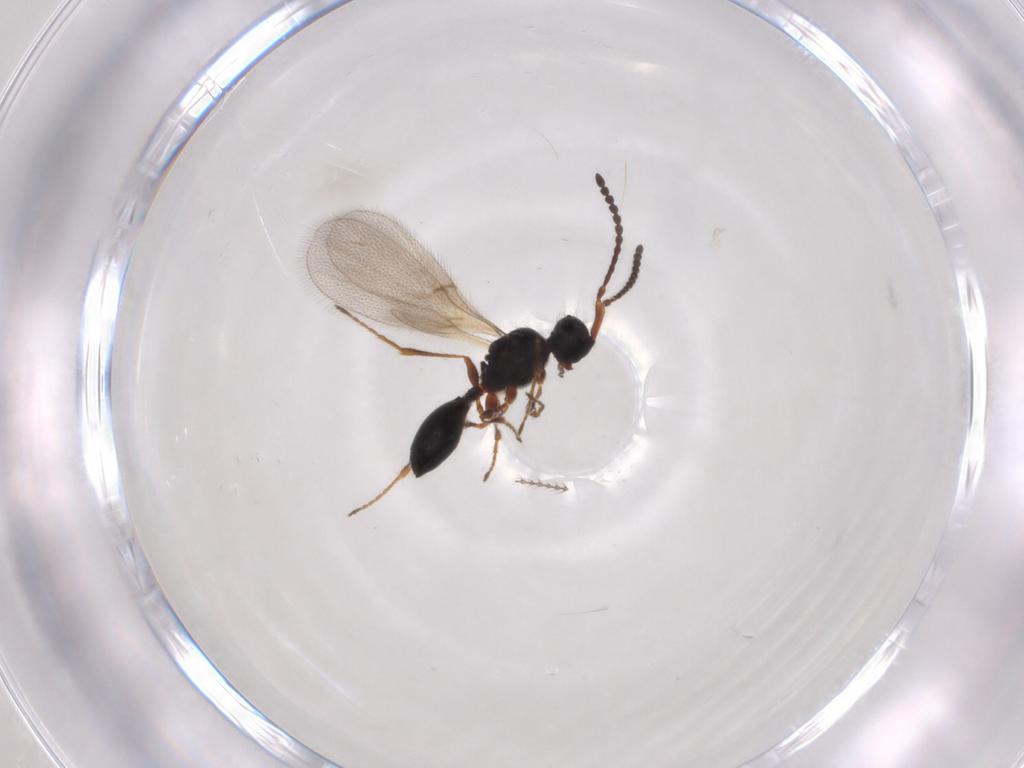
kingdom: Animalia
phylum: Arthropoda
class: Insecta
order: Hymenoptera
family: Diapriidae
